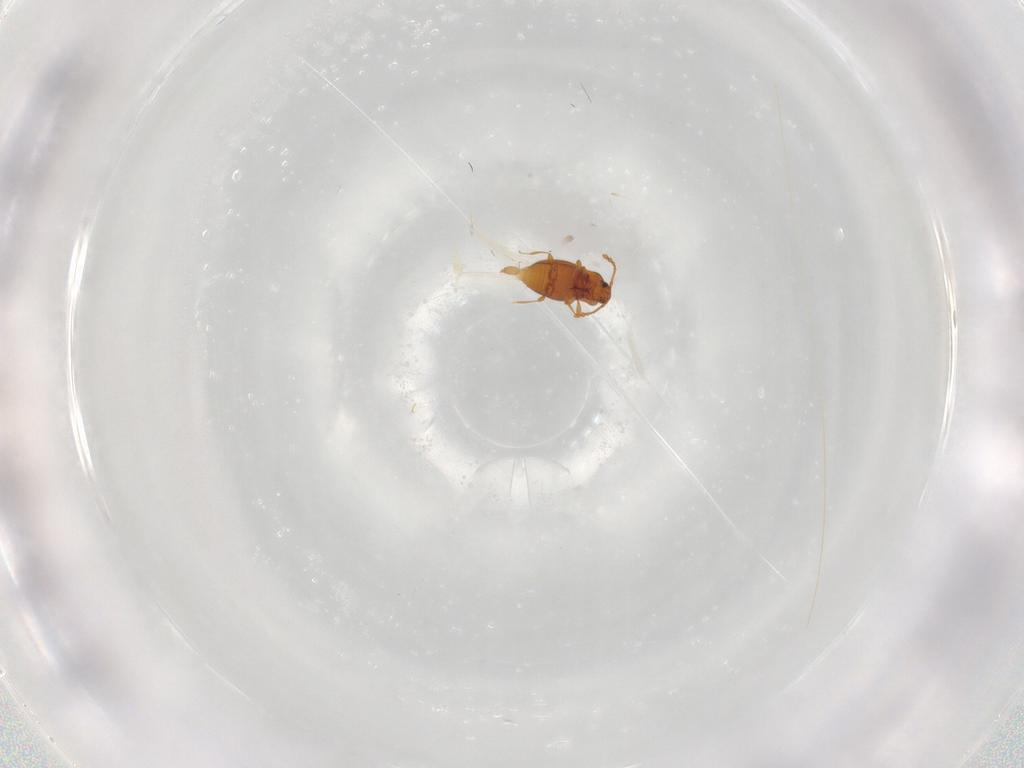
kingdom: Animalia
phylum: Arthropoda
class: Insecta
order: Coleoptera
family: Staphylinidae
